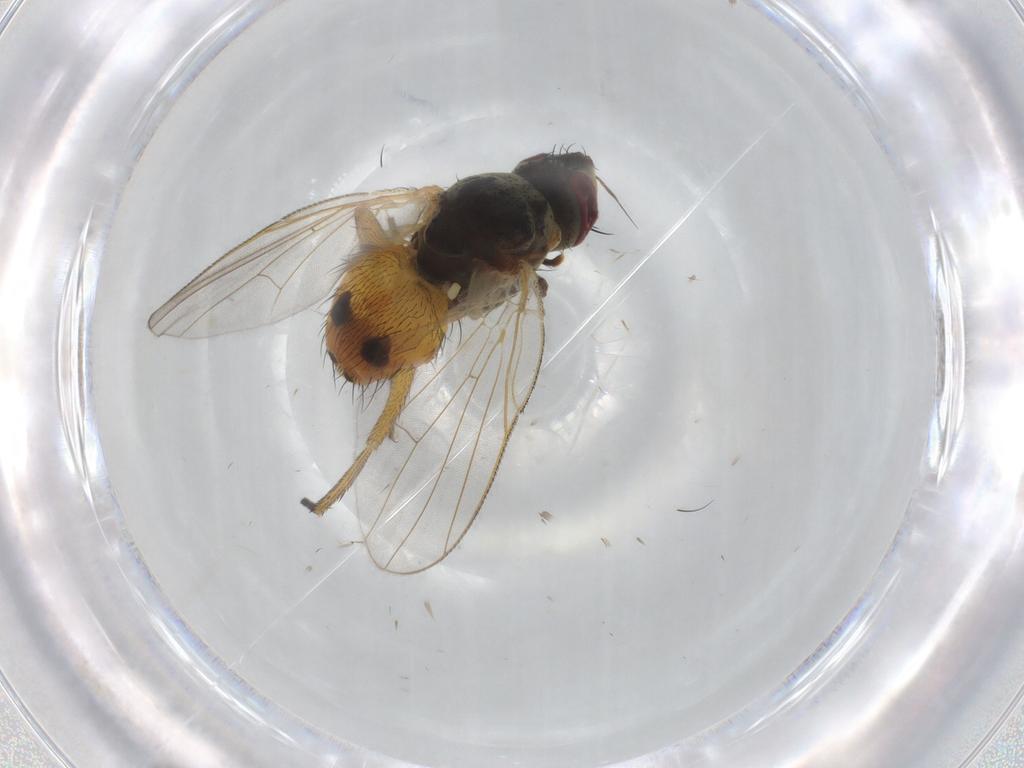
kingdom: Animalia
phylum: Arthropoda
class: Insecta
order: Diptera
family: Muscidae
